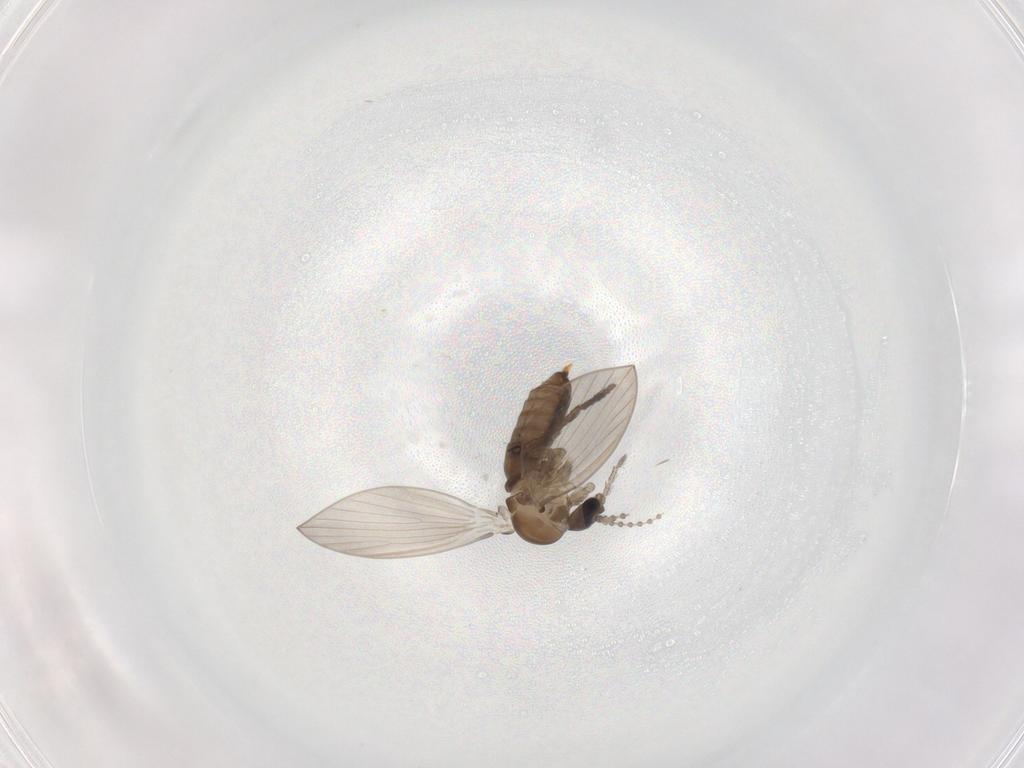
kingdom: Animalia
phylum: Arthropoda
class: Insecta
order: Diptera
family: Psychodidae
